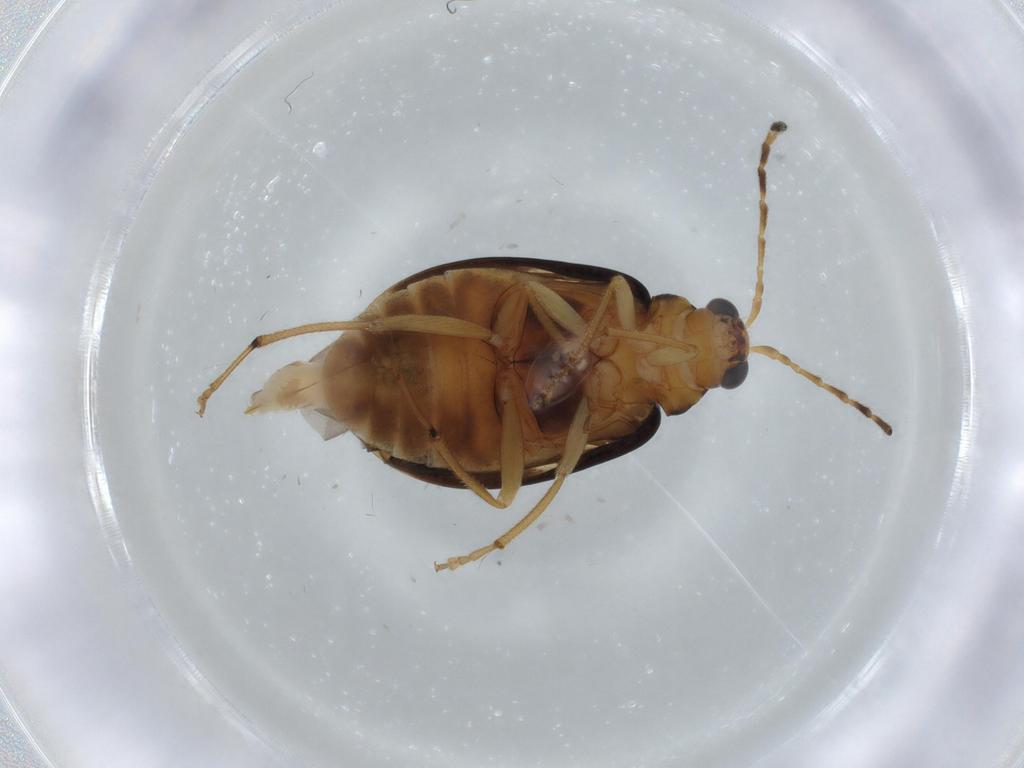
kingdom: Animalia
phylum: Arthropoda
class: Insecta
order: Coleoptera
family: Chrysomelidae
